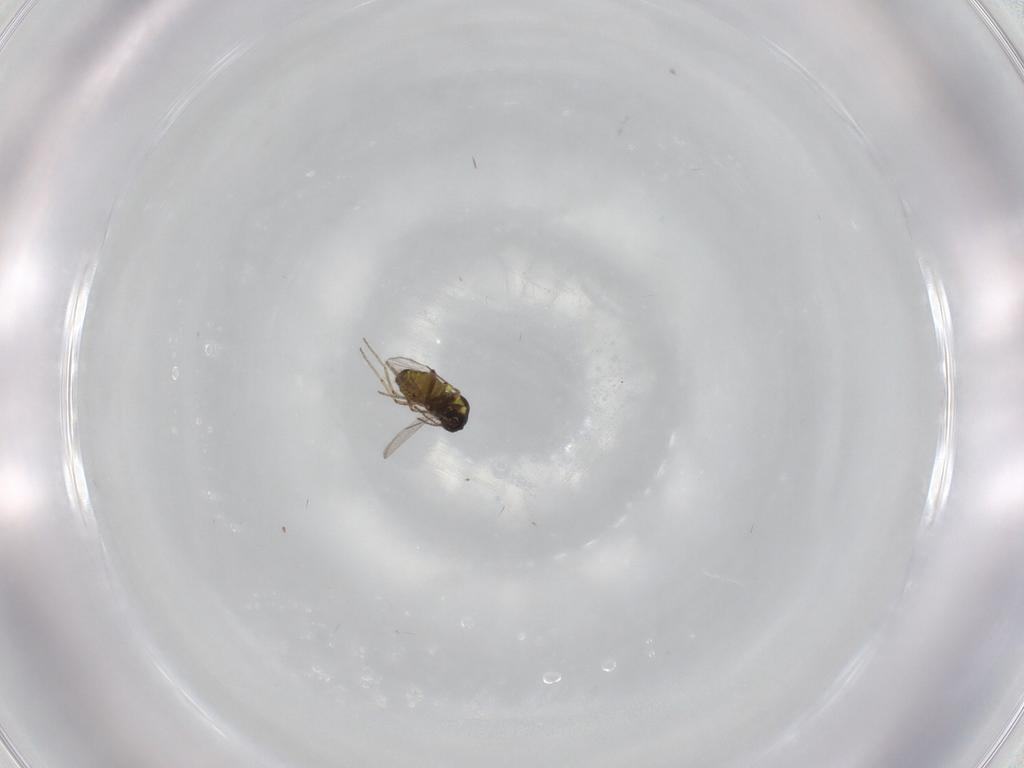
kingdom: Animalia
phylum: Arthropoda
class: Insecta
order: Diptera
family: Ceratopogonidae
